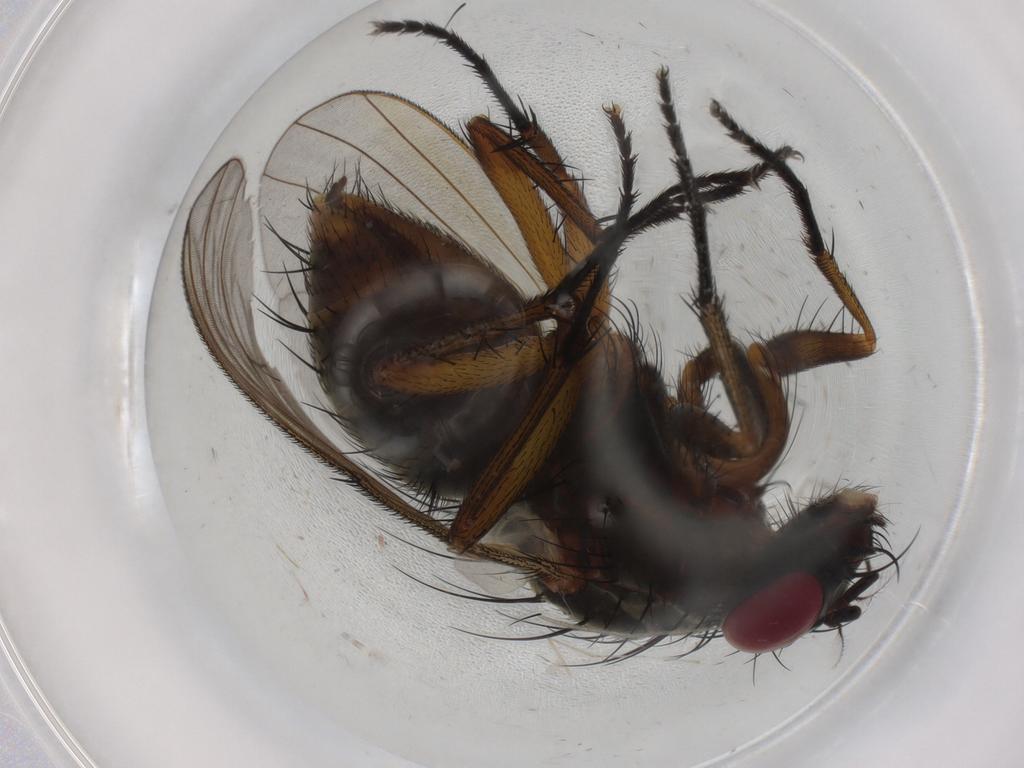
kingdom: Animalia
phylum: Arthropoda
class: Insecta
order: Diptera
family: Muscidae
